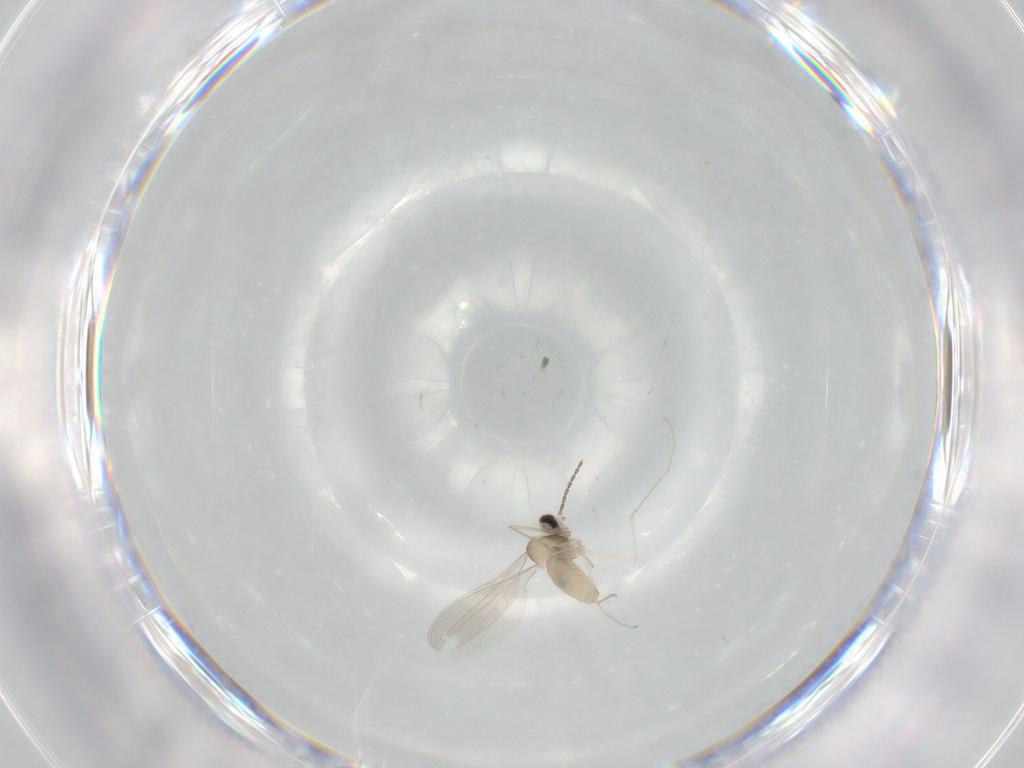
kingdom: Animalia
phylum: Arthropoda
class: Insecta
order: Diptera
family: Cecidomyiidae
